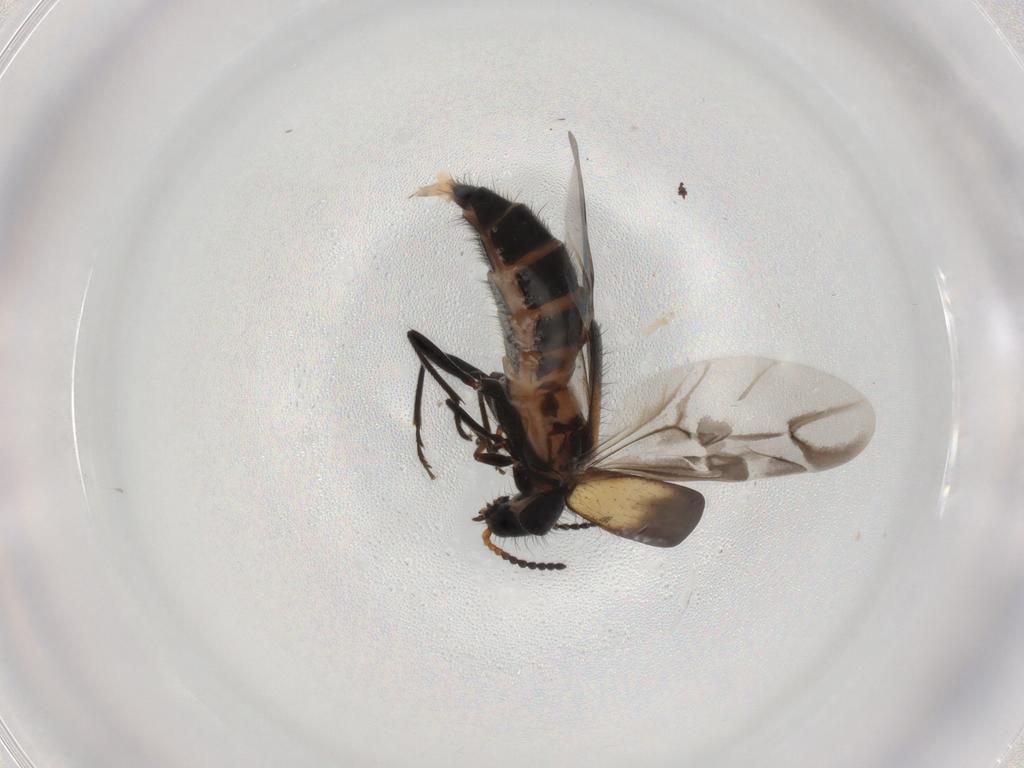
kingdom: Animalia
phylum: Arthropoda
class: Insecta
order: Coleoptera
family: Melyridae
